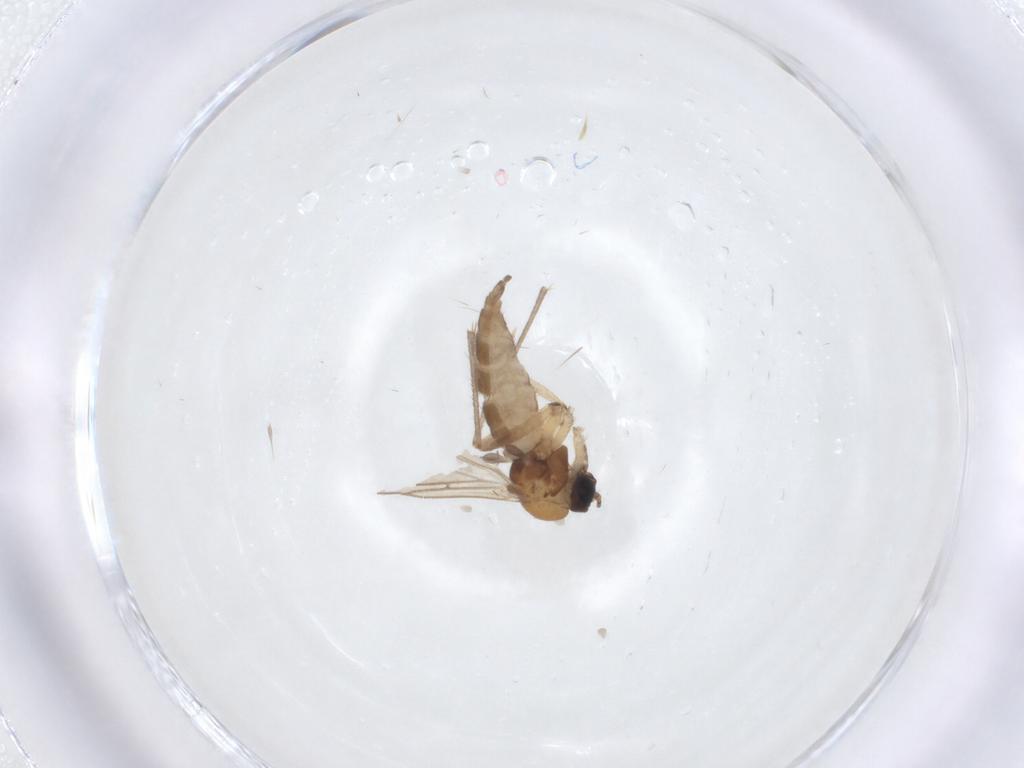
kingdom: Animalia
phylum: Arthropoda
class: Insecta
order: Diptera
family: Sciaridae
